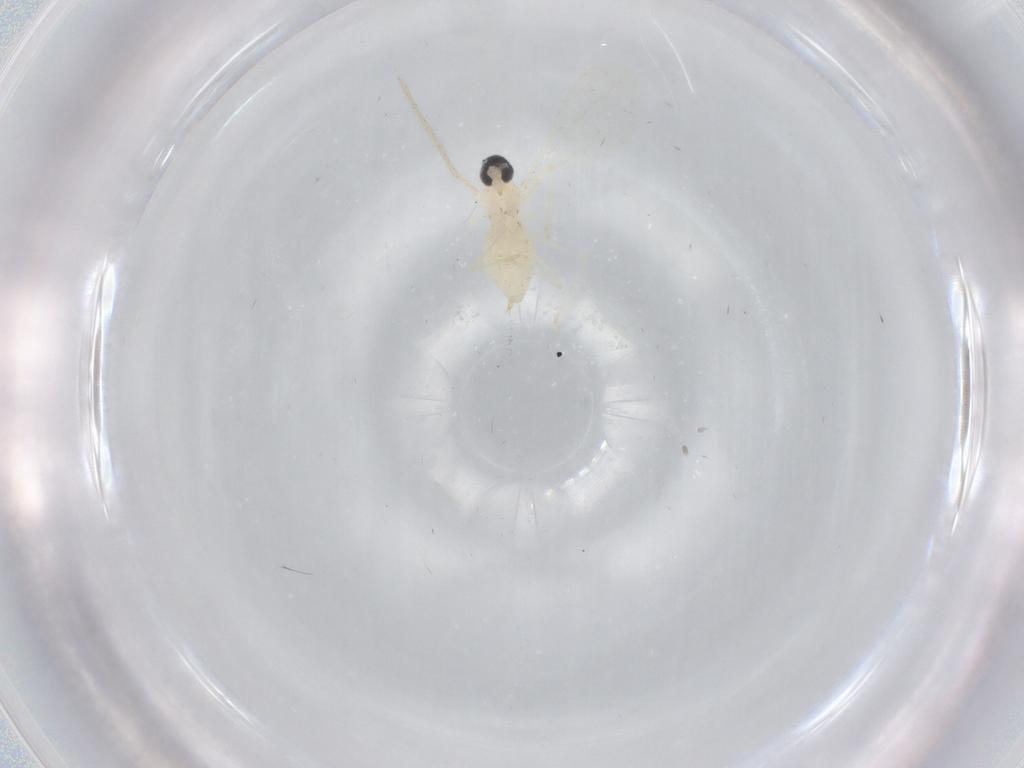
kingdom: Animalia
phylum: Arthropoda
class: Insecta
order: Diptera
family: Cecidomyiidae
